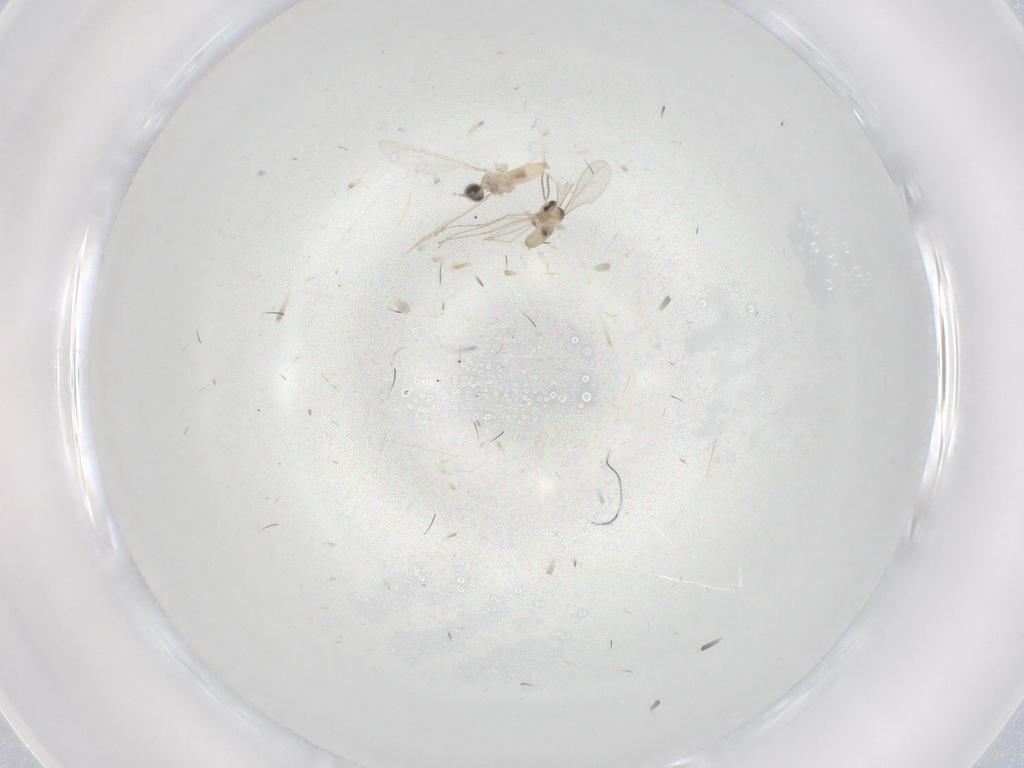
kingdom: Animalia
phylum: Arthropoda
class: Insecta
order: Diptera
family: Cecidomyiidae
